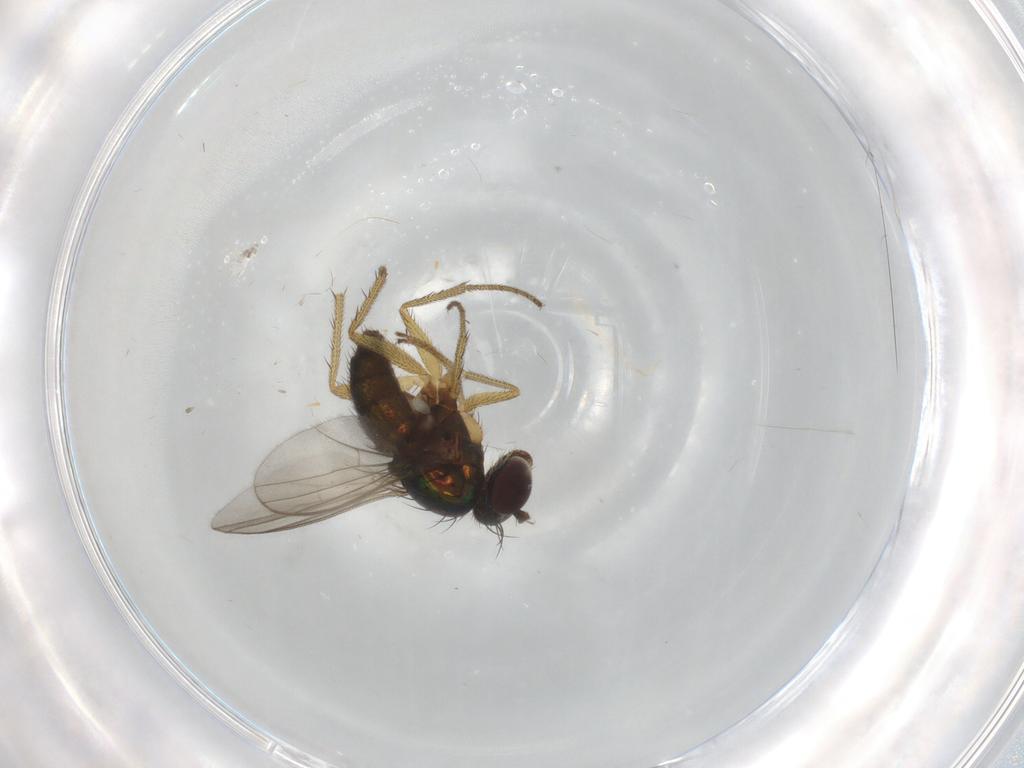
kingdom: Animalia
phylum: Arthropoda
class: Insecta
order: Diptera
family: Dolichopodidae
